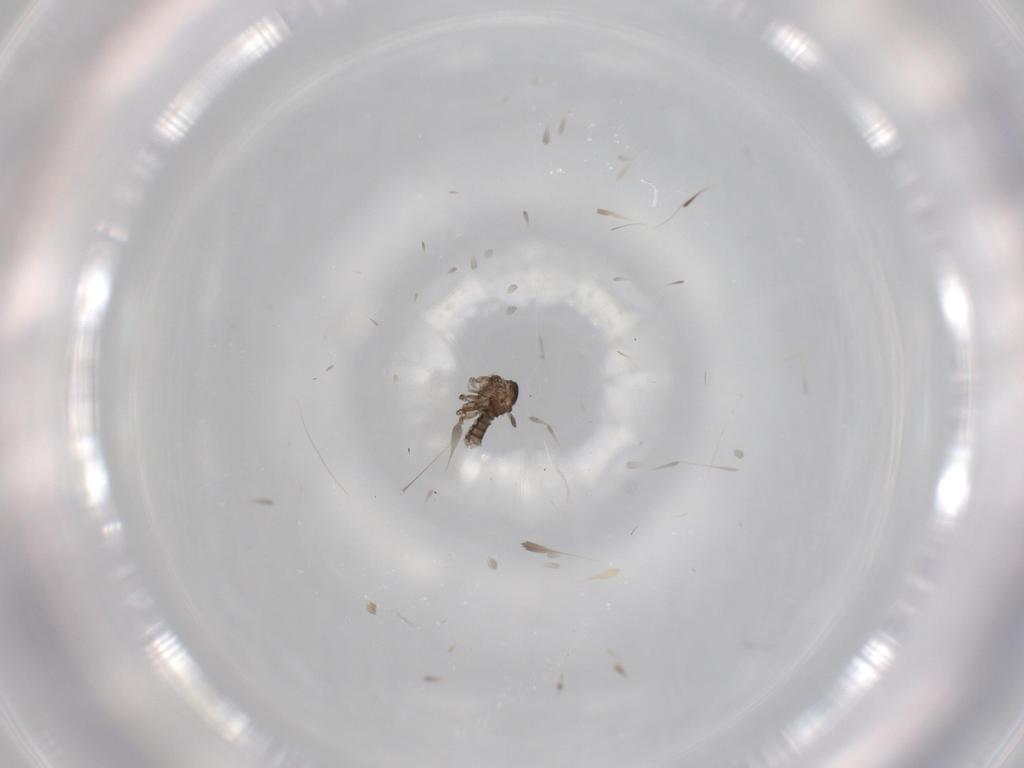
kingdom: Animalia
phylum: Arthropoda
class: Insecta
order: Diptera
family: Sciaridae
